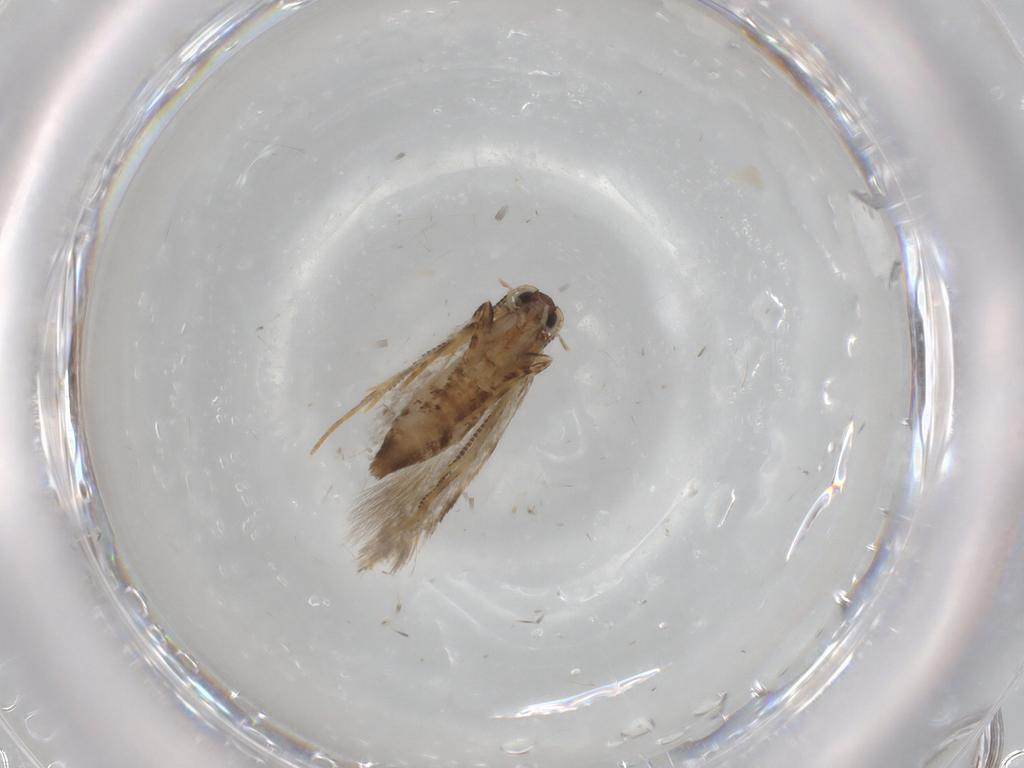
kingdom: Animalia
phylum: Arthropoda
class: Insecta
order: Lepidoptera
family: Tineidae
